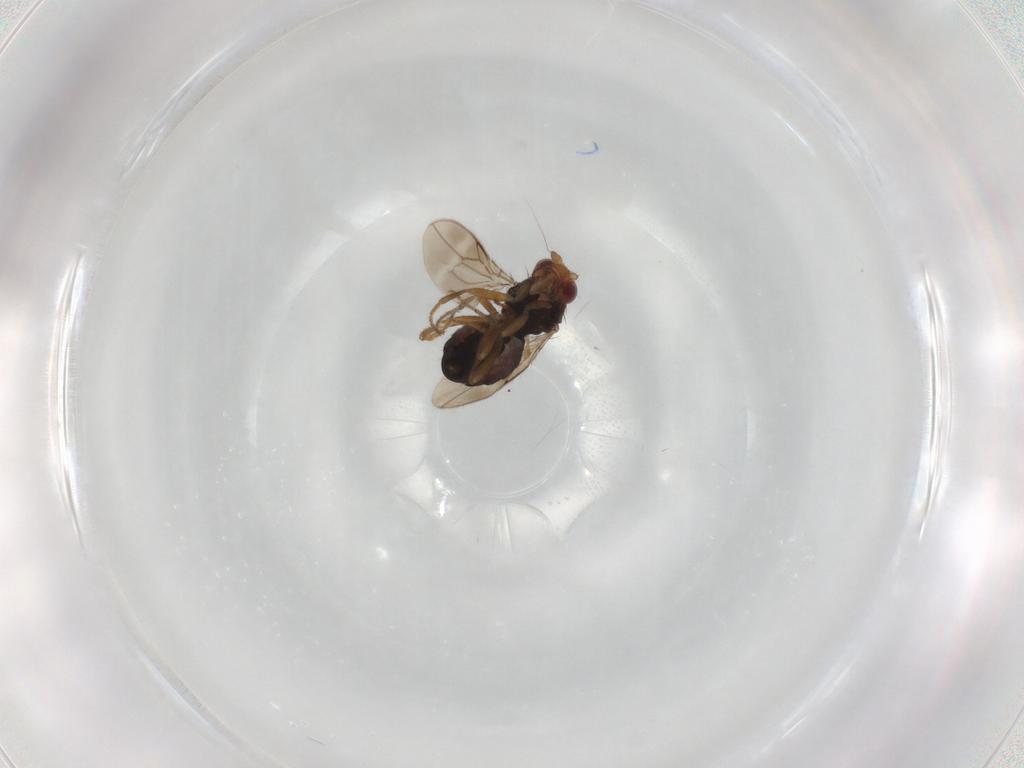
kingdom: Animalia
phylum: Arthropoda
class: Insecta
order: Diptera
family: Sphaeroceridae
